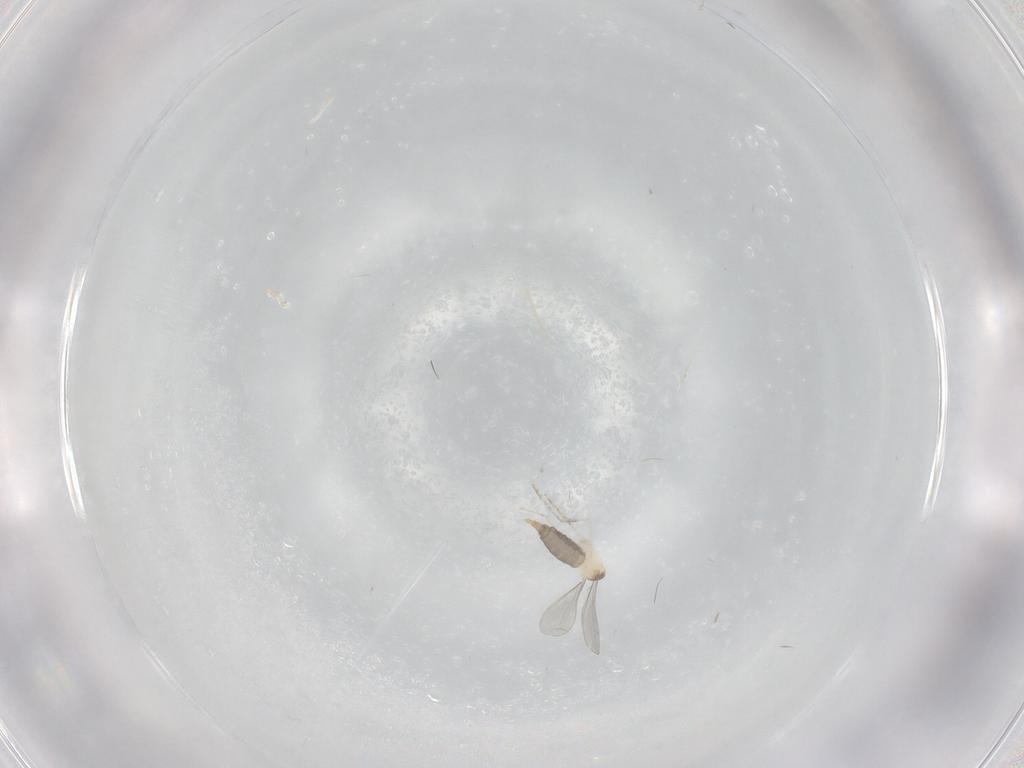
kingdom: Animalia
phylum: Arthropoda
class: Insecta
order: Diptera
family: Cecidomyiidae
